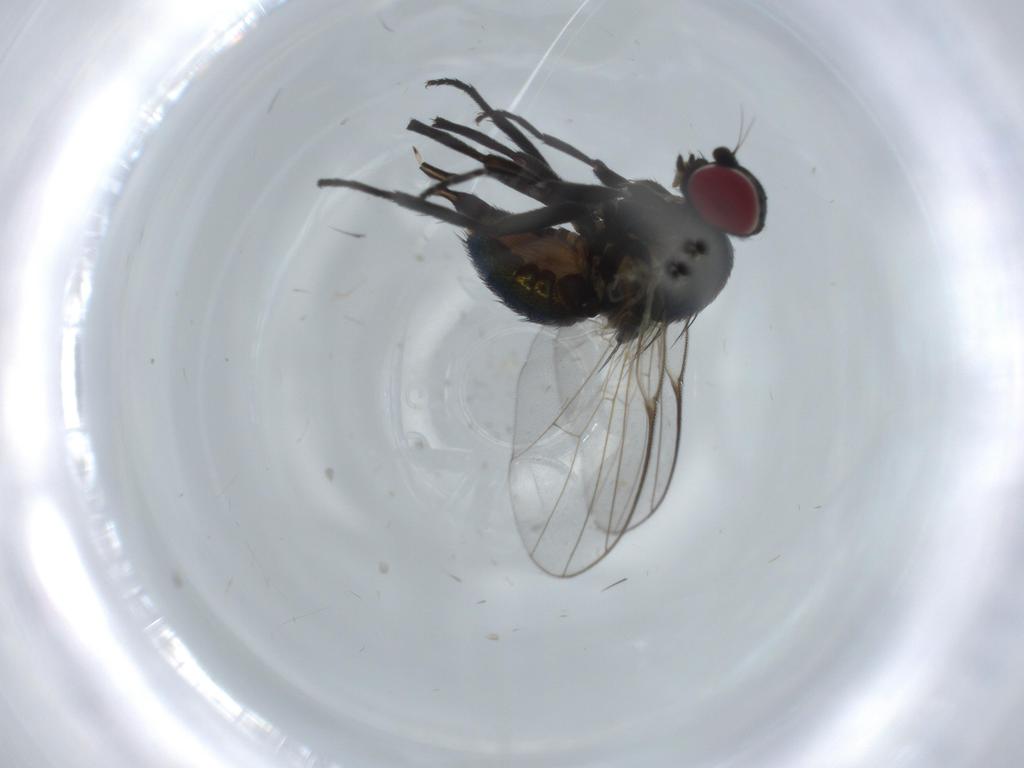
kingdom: Animalia
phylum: Arthropoda
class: Insecta
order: Diptera
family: Agromyzidae
